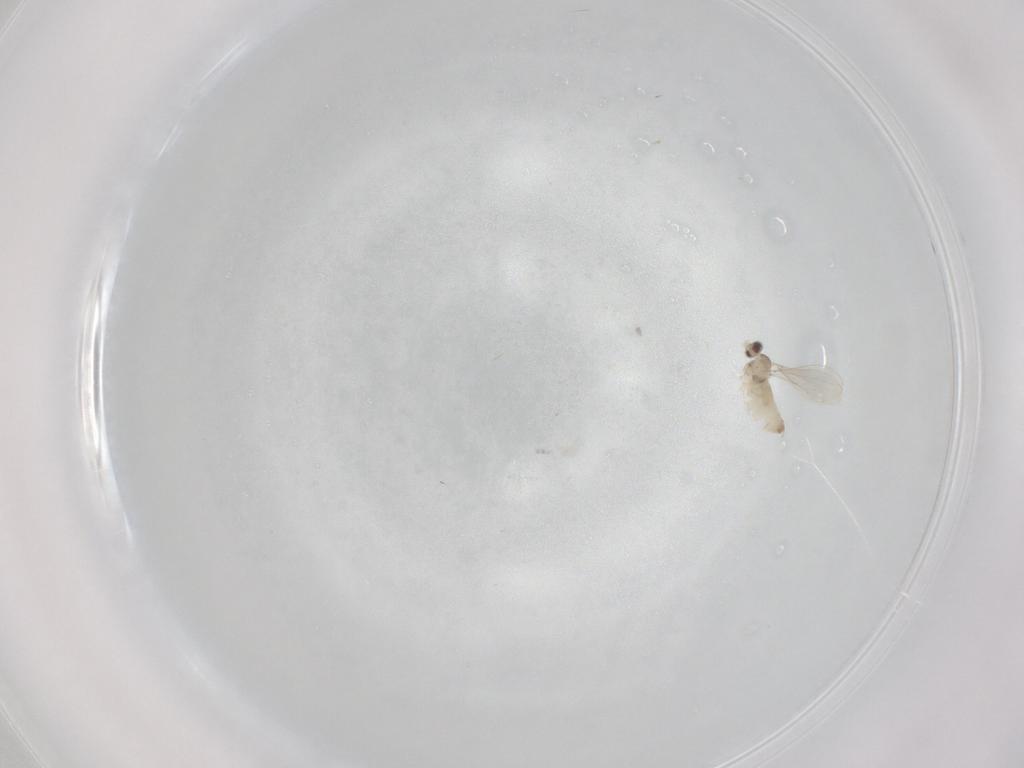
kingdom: Animalia
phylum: Arthropoda
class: Insecta
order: Diptera
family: Cecidomyiidae
